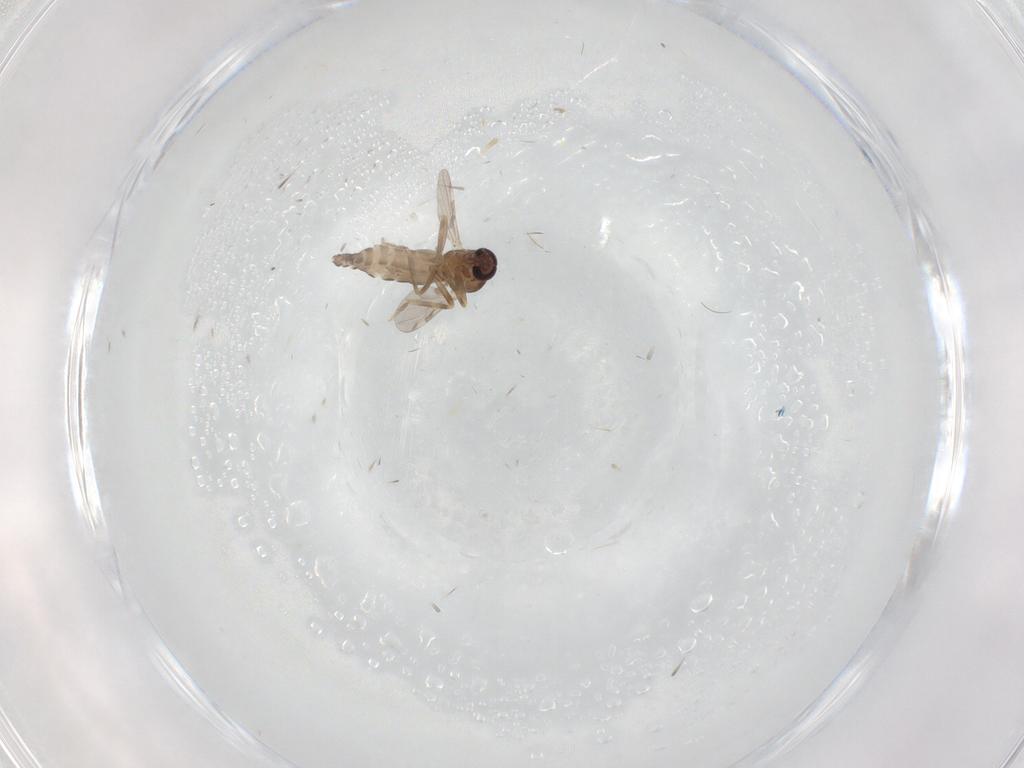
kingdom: Animalia
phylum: Arthropoda
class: Insecta
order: Diptera
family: Ceratopogonidae
